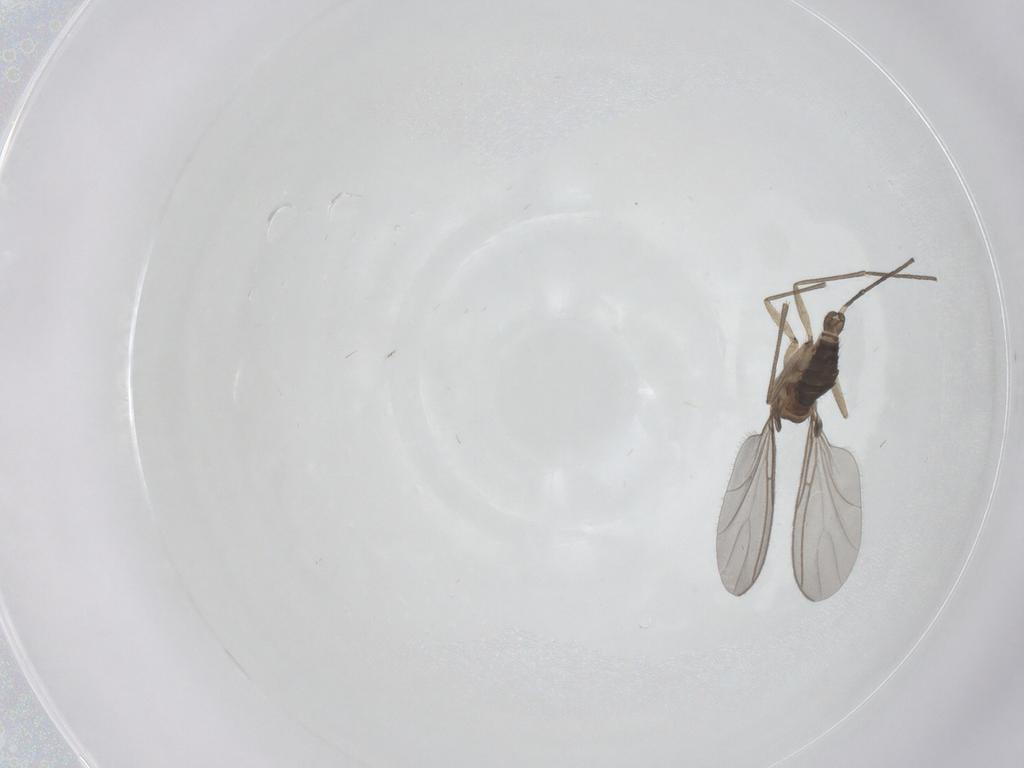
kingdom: Animalia
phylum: Arthropoda
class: Insecta
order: Diptera
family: Sciaridae
